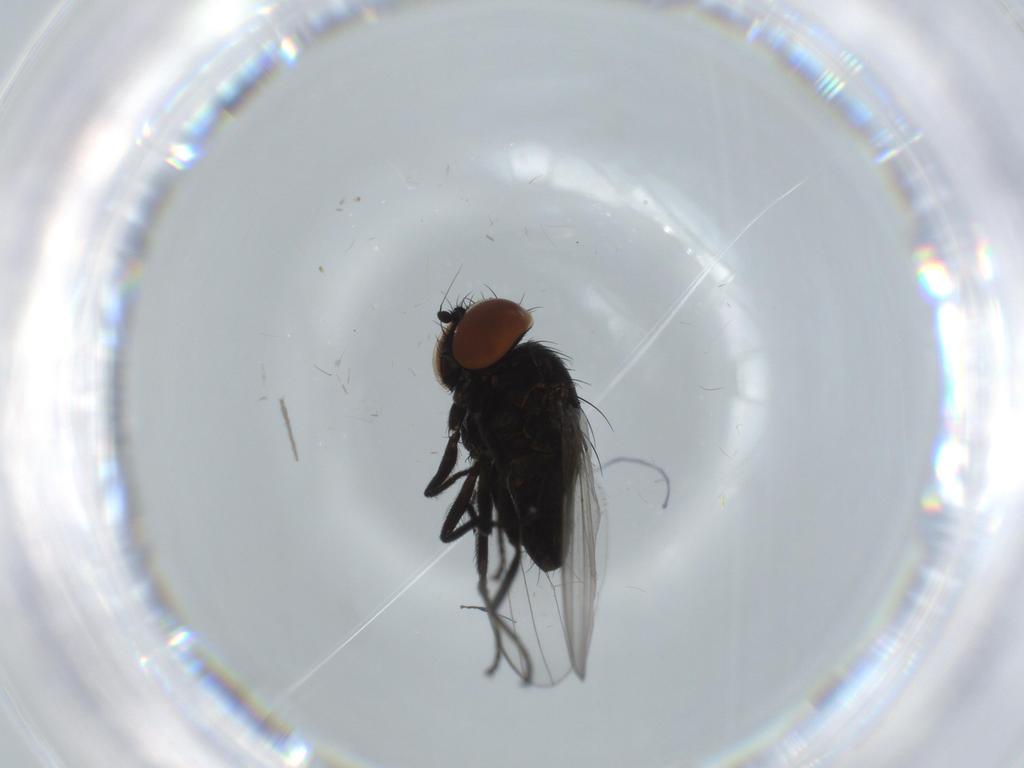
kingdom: Animalia
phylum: Arthropoda
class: Insecta
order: Diptera
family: Milichiidae
